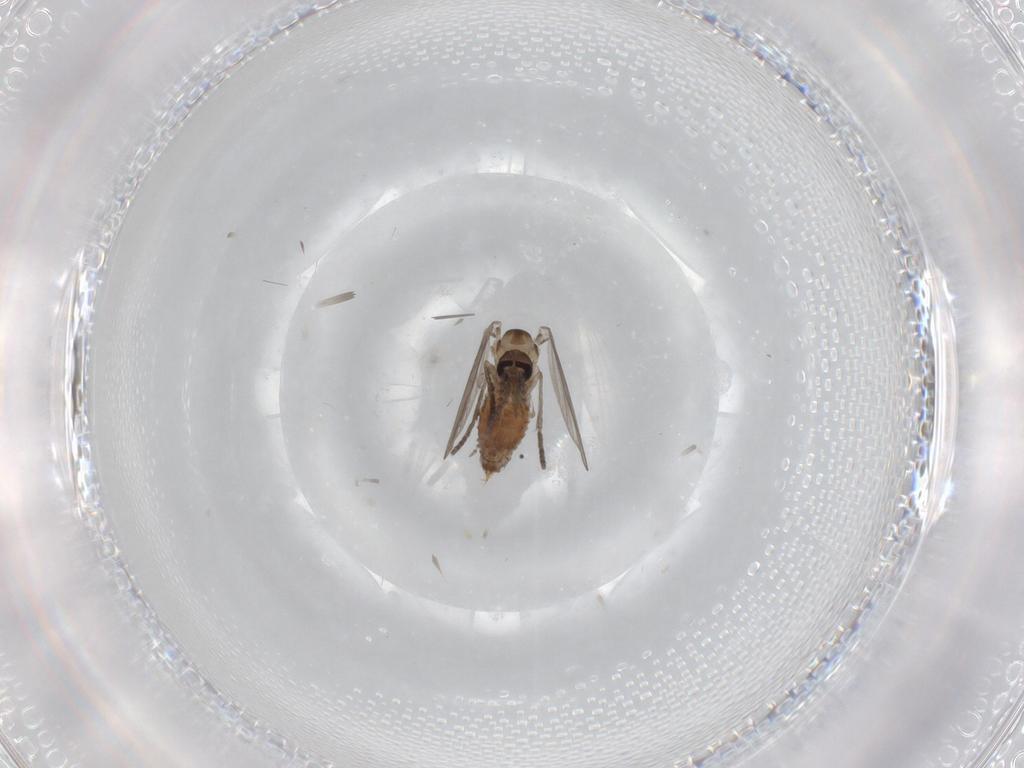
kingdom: Animalia
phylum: Arthropoda
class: Insecta
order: Diptera
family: Psychodidae
